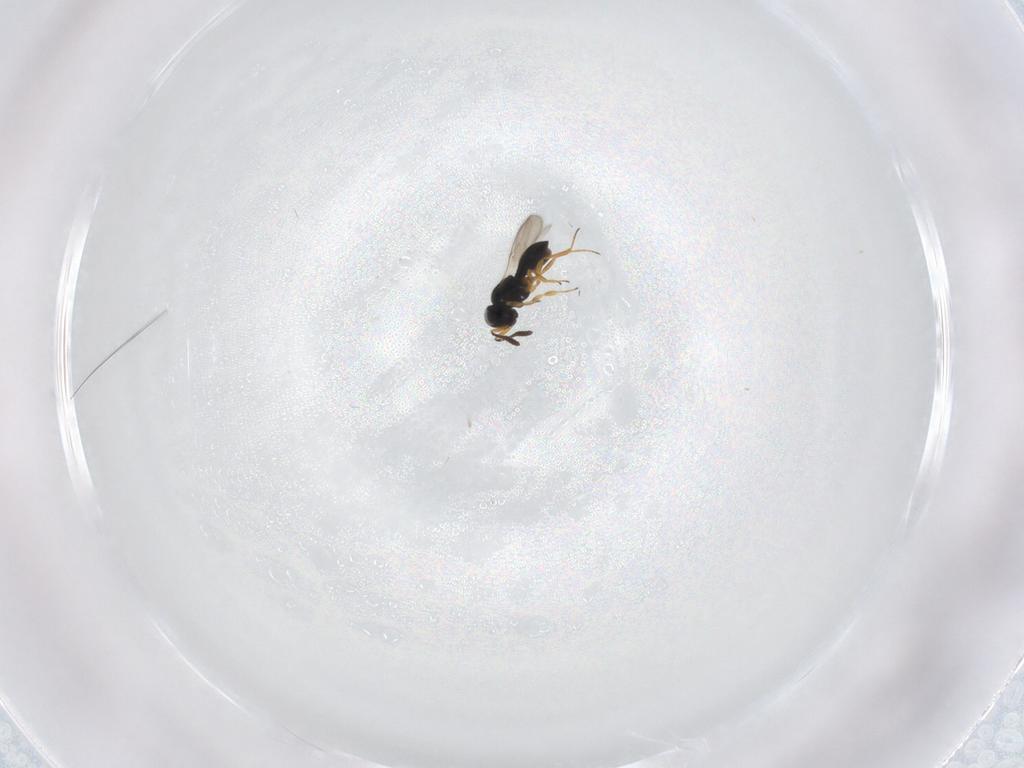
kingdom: Animalia
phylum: Arthropoda
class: Insecta
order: Hymenoptera
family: Scelionidae
